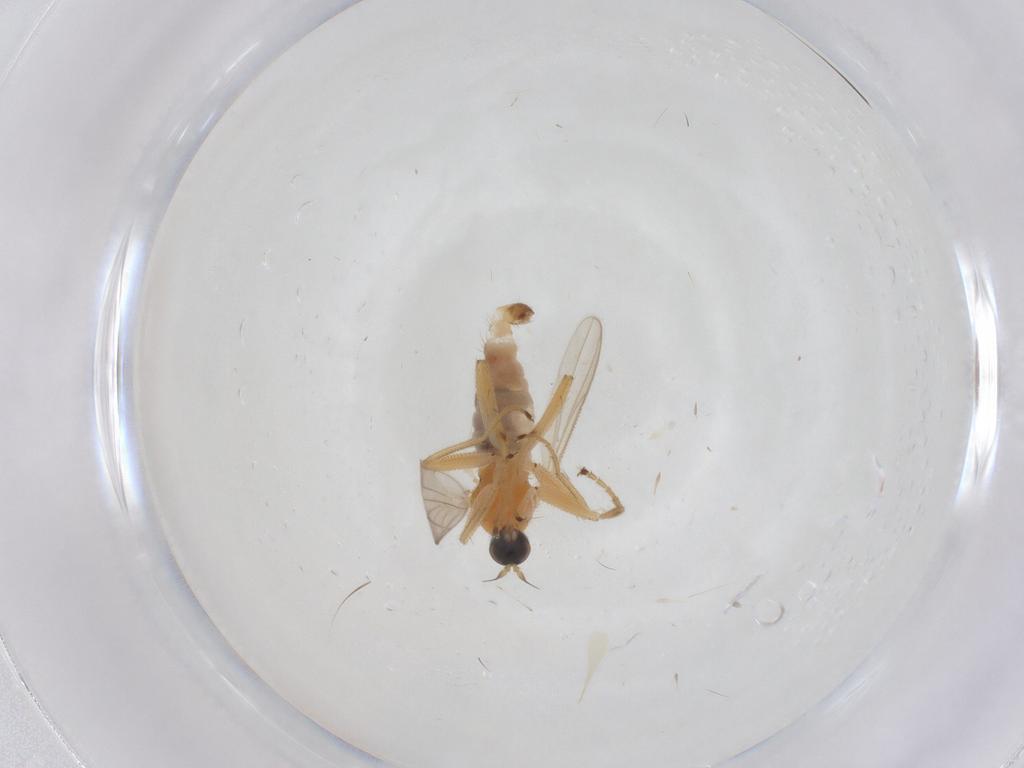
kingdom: Animalia
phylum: Arthropoda
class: Insecta
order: Diptera
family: Hybotidae
